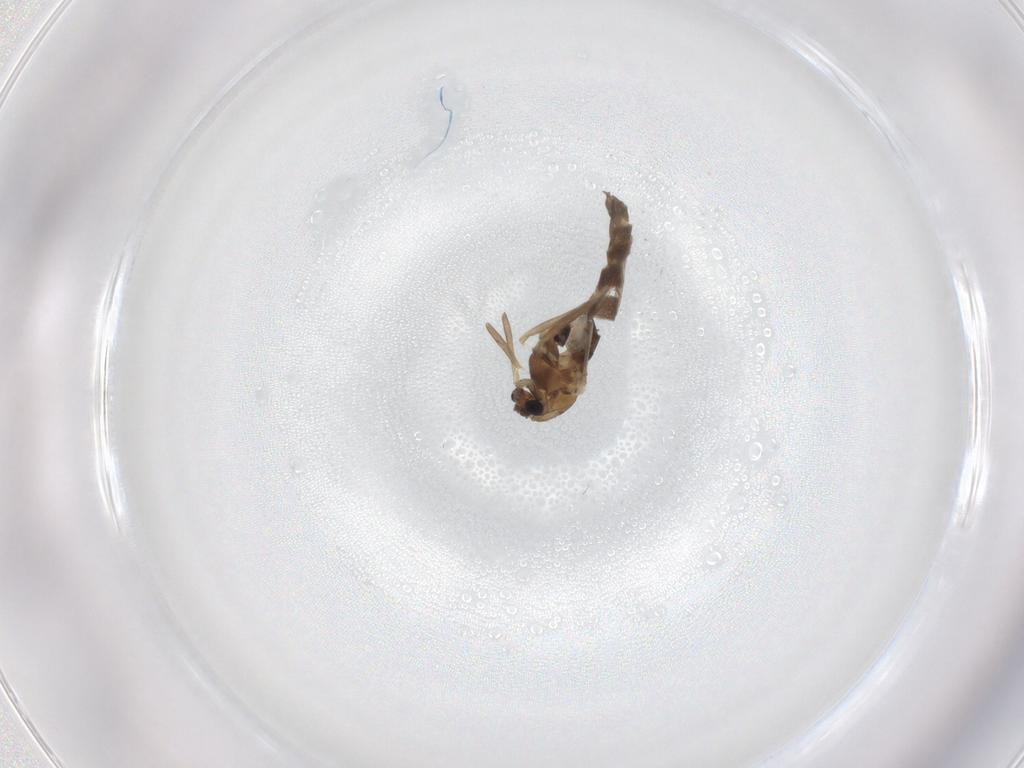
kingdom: Animalia
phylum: Arthropoda
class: Insecta
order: Diptera
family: Chironomidae
